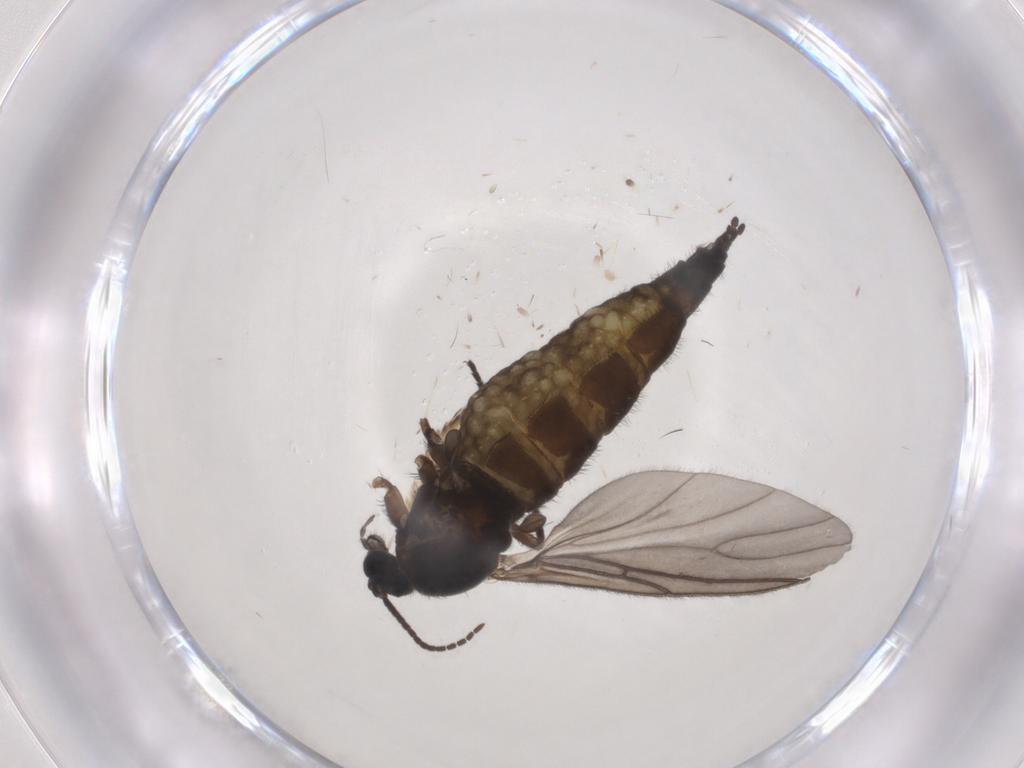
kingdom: Animalia
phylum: Arthropoda
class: Insecta
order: Diptera
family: Sciaridae
